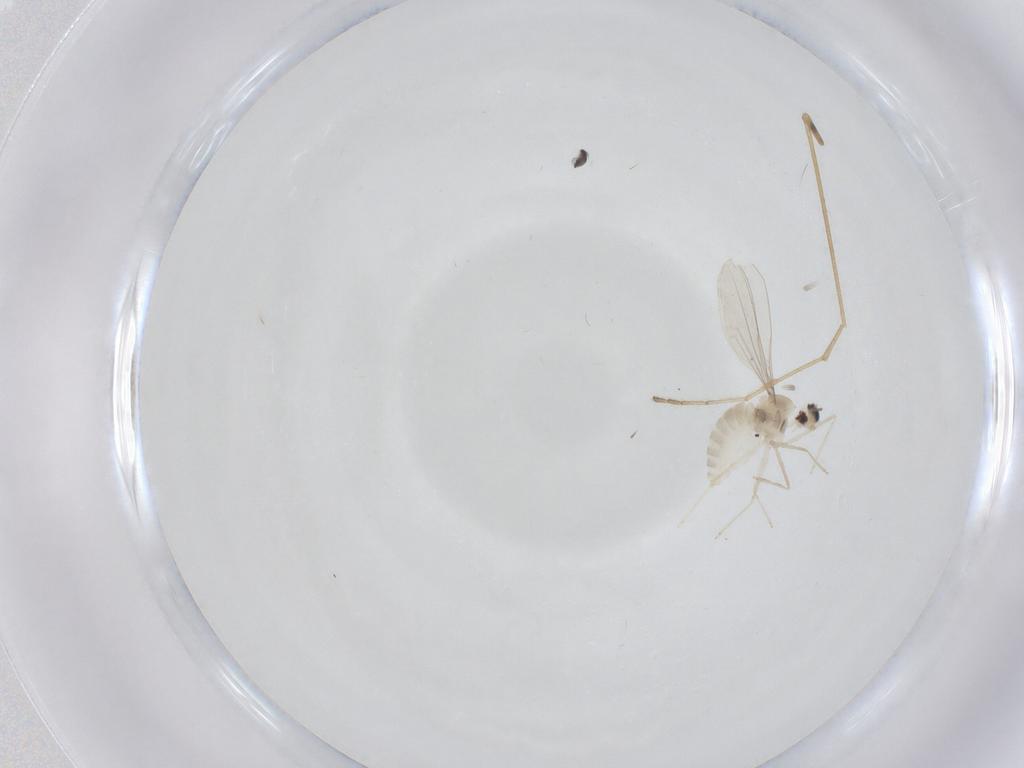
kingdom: Animalia
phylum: Arthropoda
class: Insecta
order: Diptera
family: Cecidomyiidae
